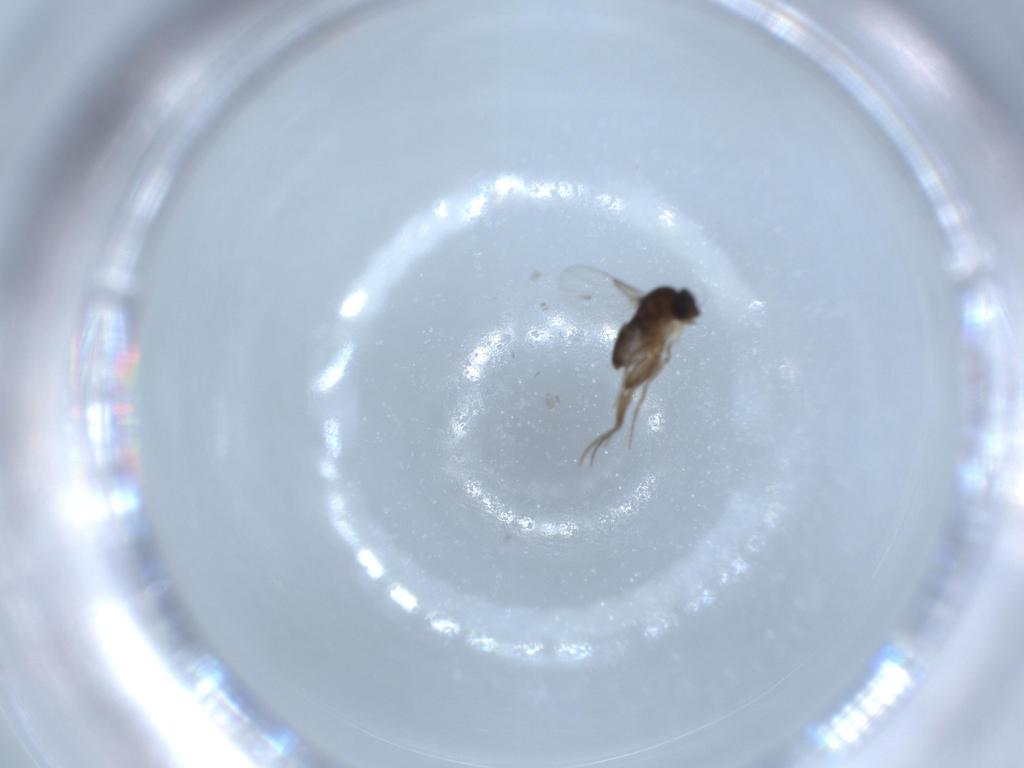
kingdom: Animalia
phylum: Arthropoda
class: Insecta
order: Diptera
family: Phoridae
